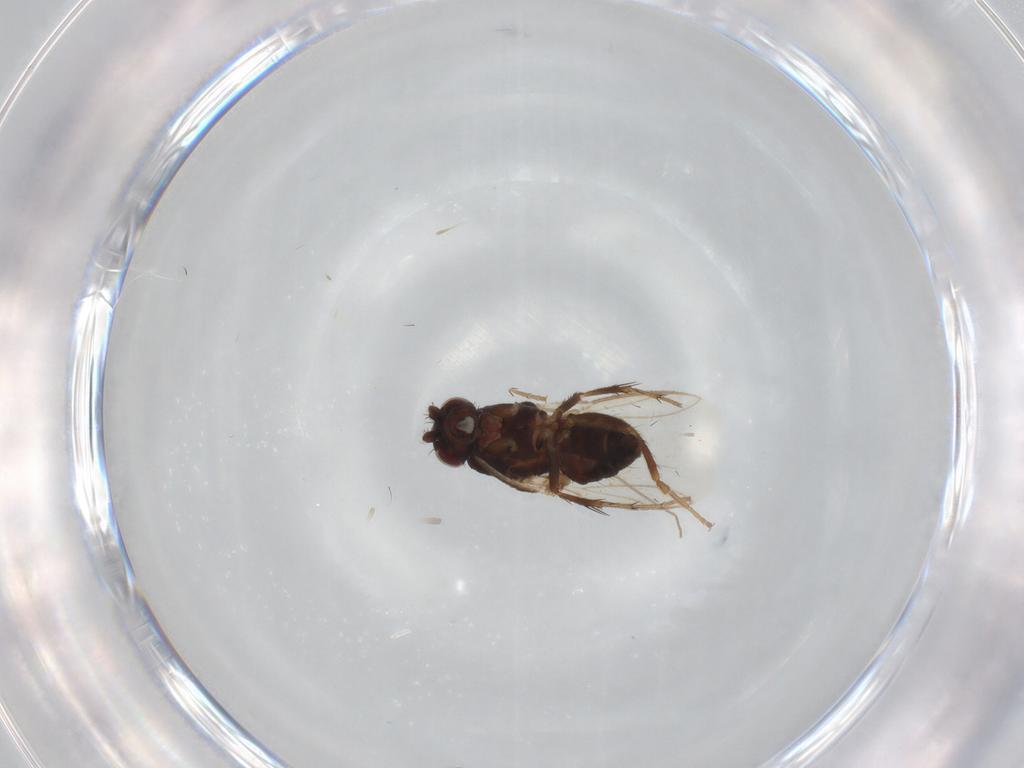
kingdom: Animalia
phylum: Arthropoda
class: Insecta
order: Diptera
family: Sphaeroceridae
